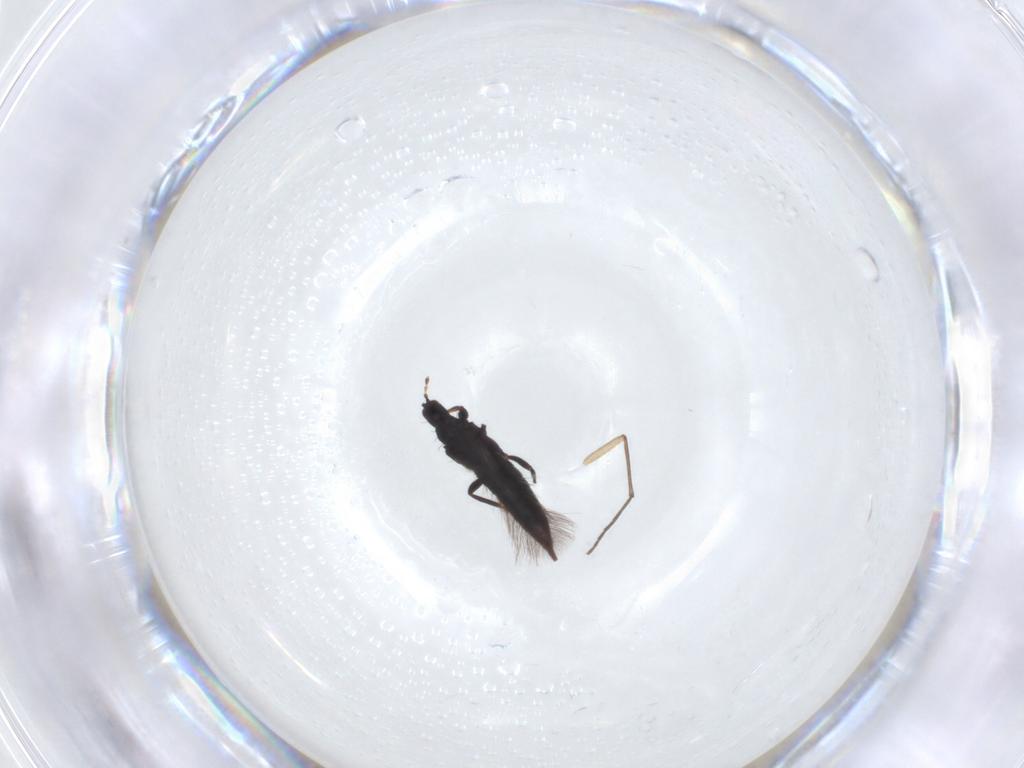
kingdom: Animalia
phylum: Arthropoda
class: Insecta
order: Thysanoptera
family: Phlaeothripidae
